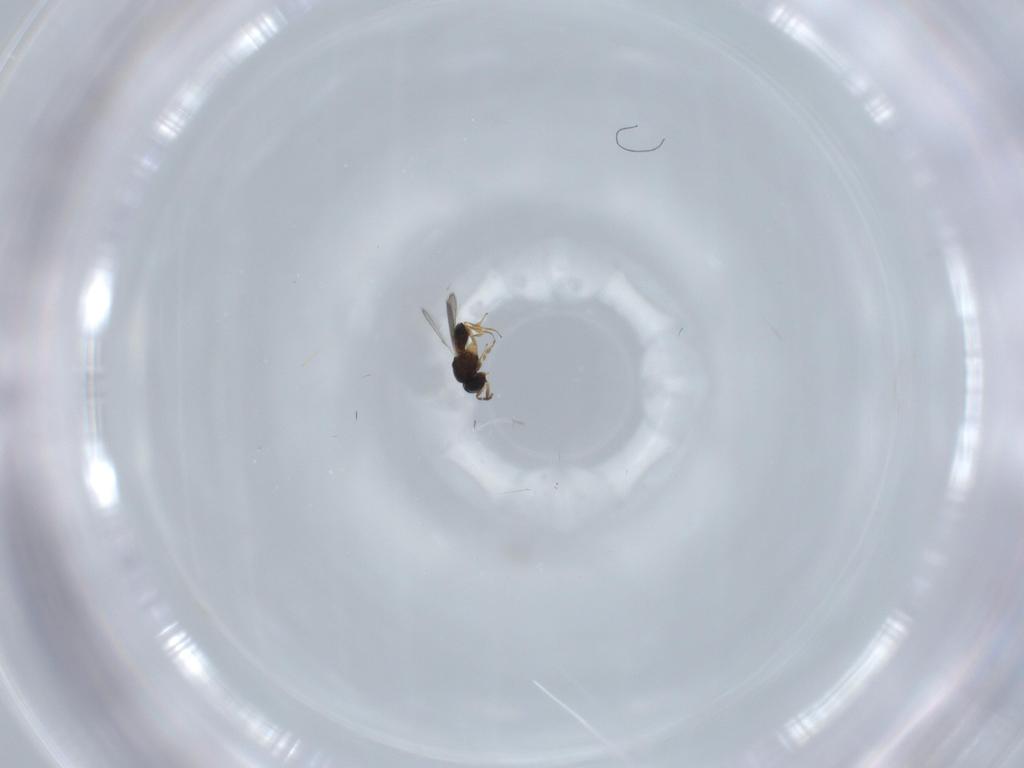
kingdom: Animalia
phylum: Arthropoda
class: Insecta
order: Hymenoptera
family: Scelionidae
